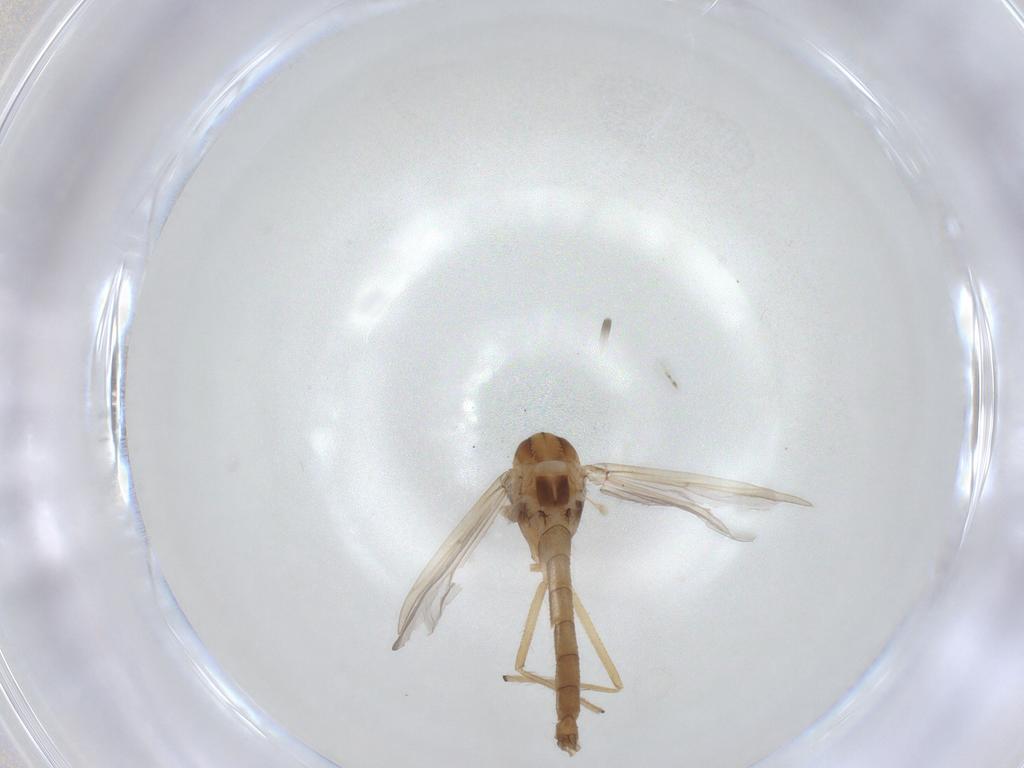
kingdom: Animalia
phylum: Arthropoda
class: Insecta
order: Diptera
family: Chironomidae
